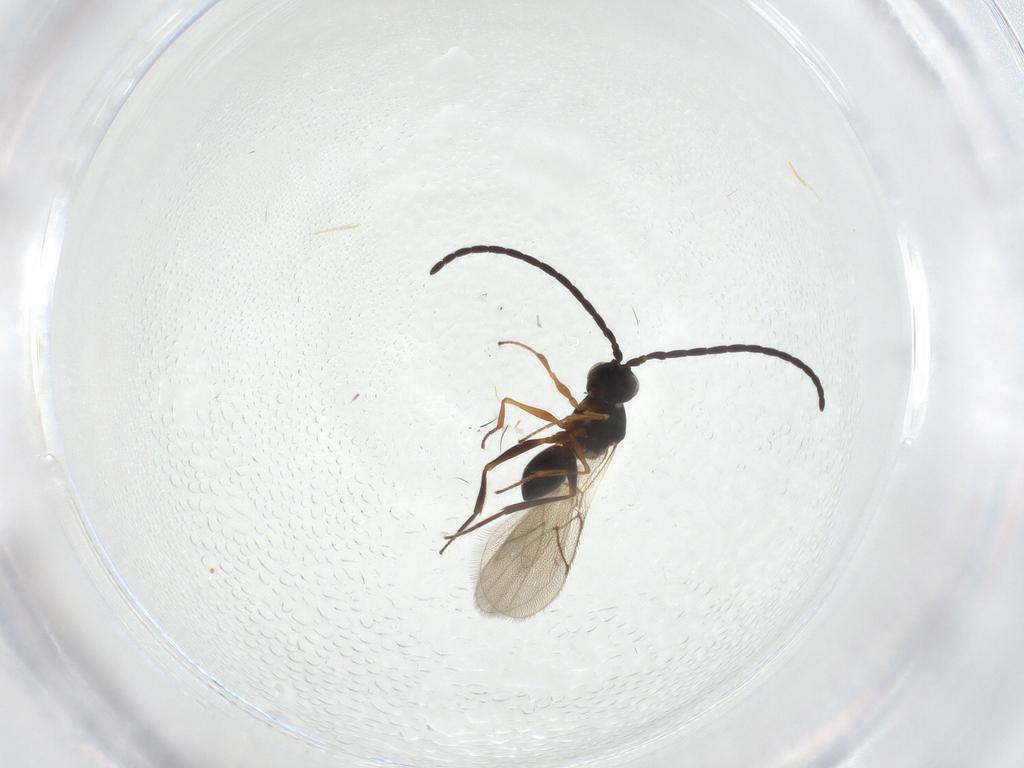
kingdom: Animalia
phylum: Arthropoda
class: Insecta
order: Hymenoptera
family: Figitidae
